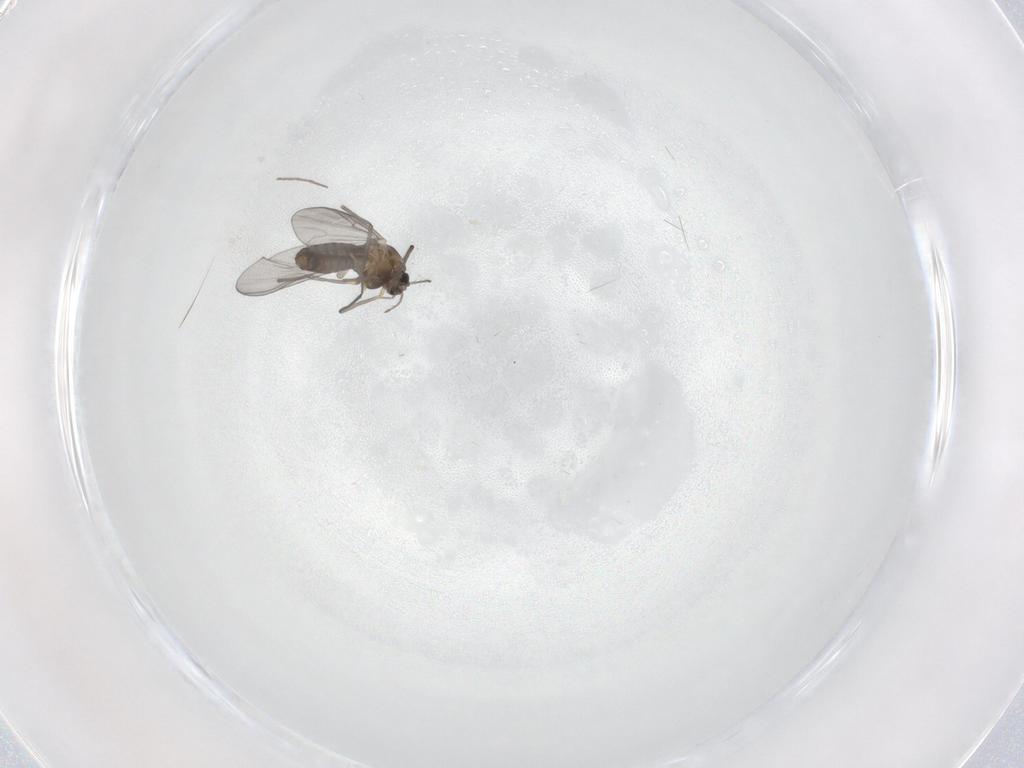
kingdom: Animalia
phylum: Arthropoda
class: Insecta
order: Diptera
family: Chironomidae
